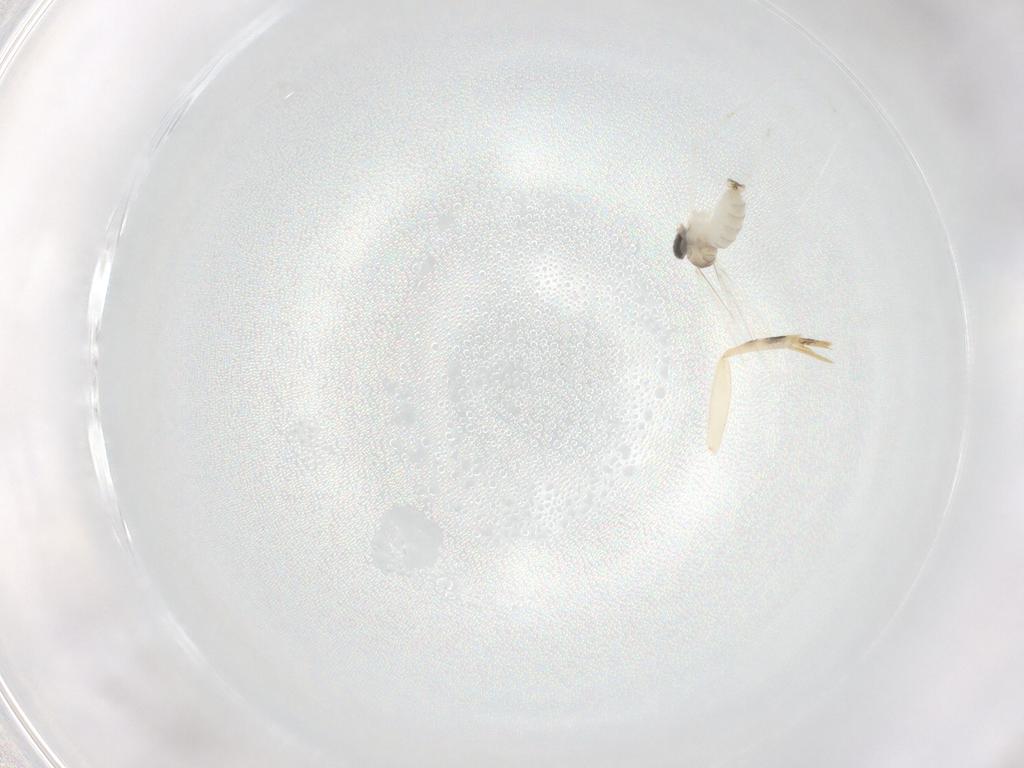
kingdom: Animalia
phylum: Arthropoda
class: Insecta
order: Diptera
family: Cecidomyiidae
